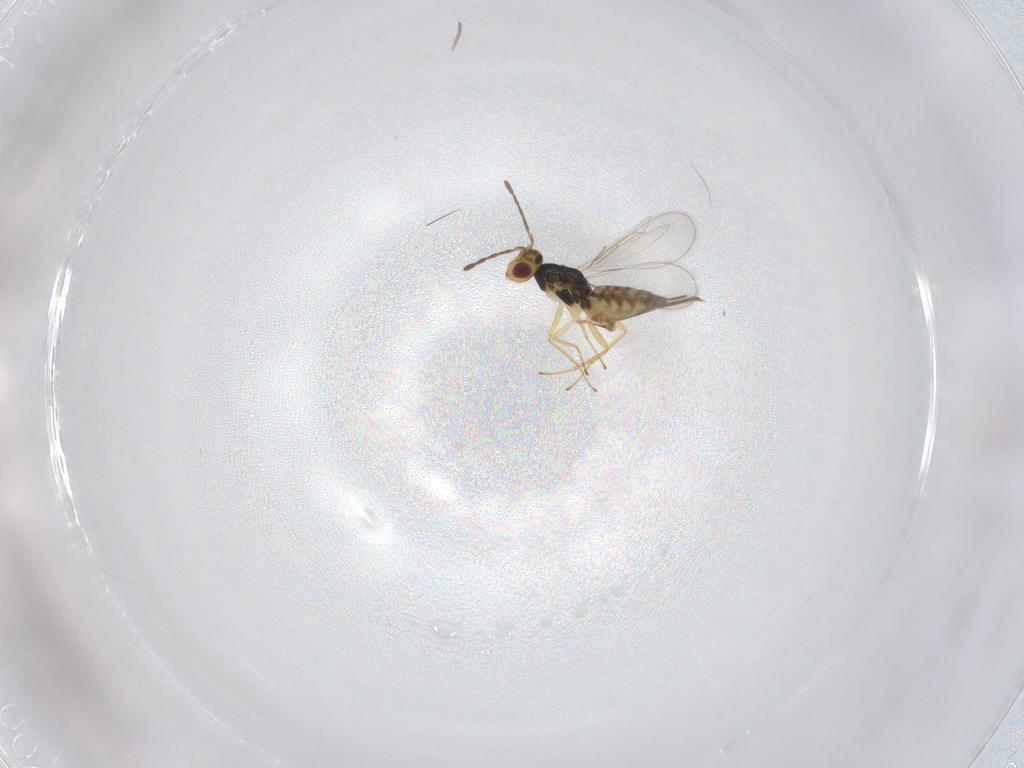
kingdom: Animalia
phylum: Arthropoda
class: Insecta
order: Hymenoptera
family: Eulophidae
